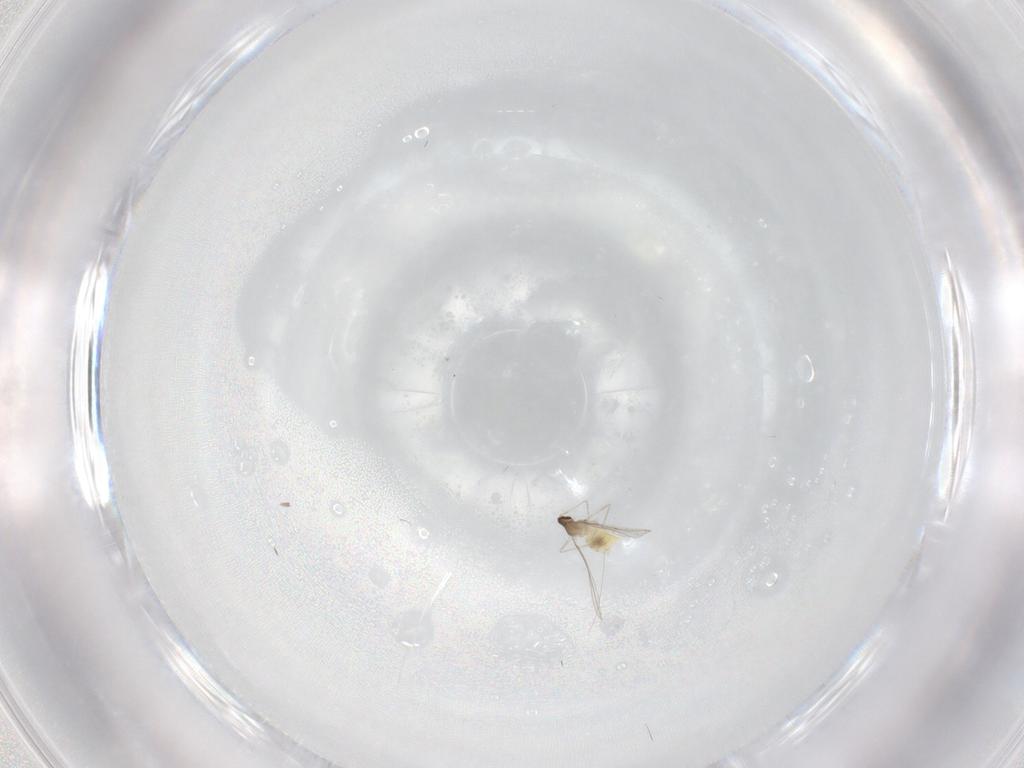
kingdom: Animalia
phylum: Arthropoda
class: Insecta
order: Diptera
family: Cecidomyiidae
